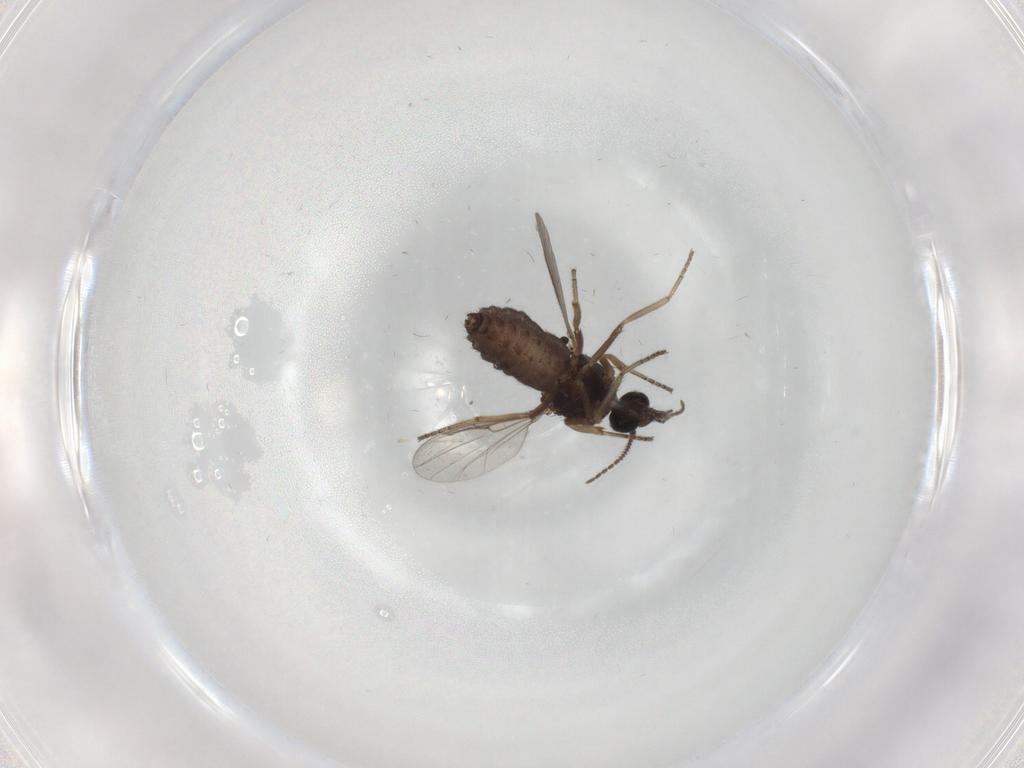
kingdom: Animalia
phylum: Arthropoda
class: Insecta
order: Diptera
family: Ceratopogonidae
